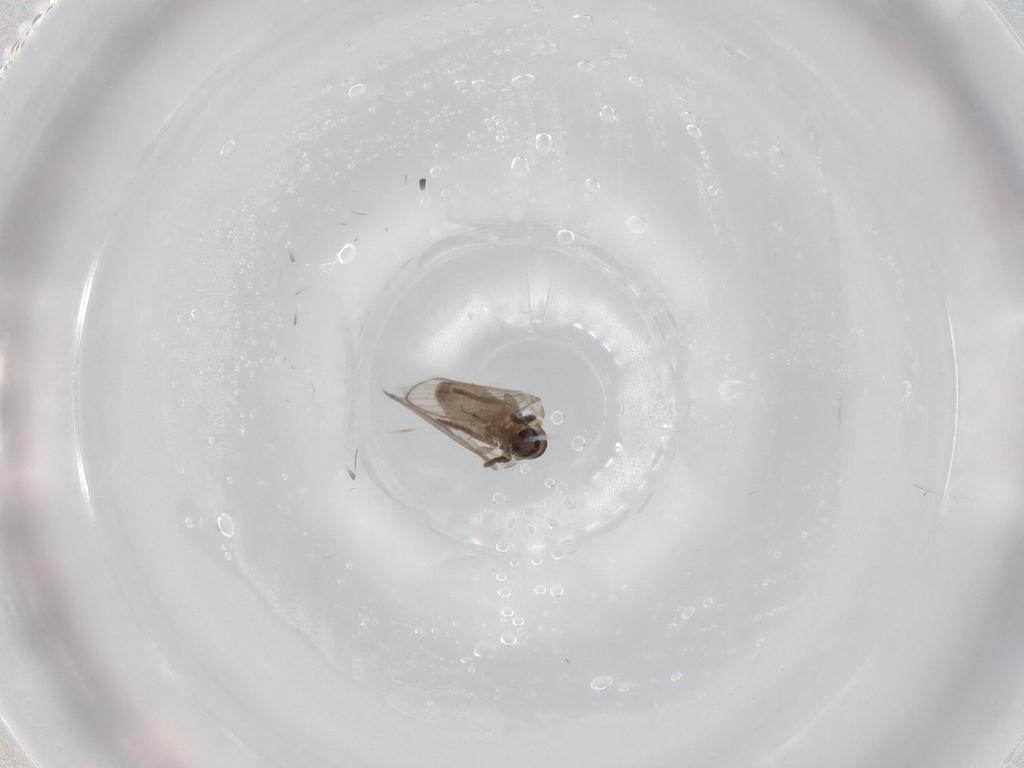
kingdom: Animalia
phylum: Arthropoda
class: Insecta
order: Diptera
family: Psychodidae
